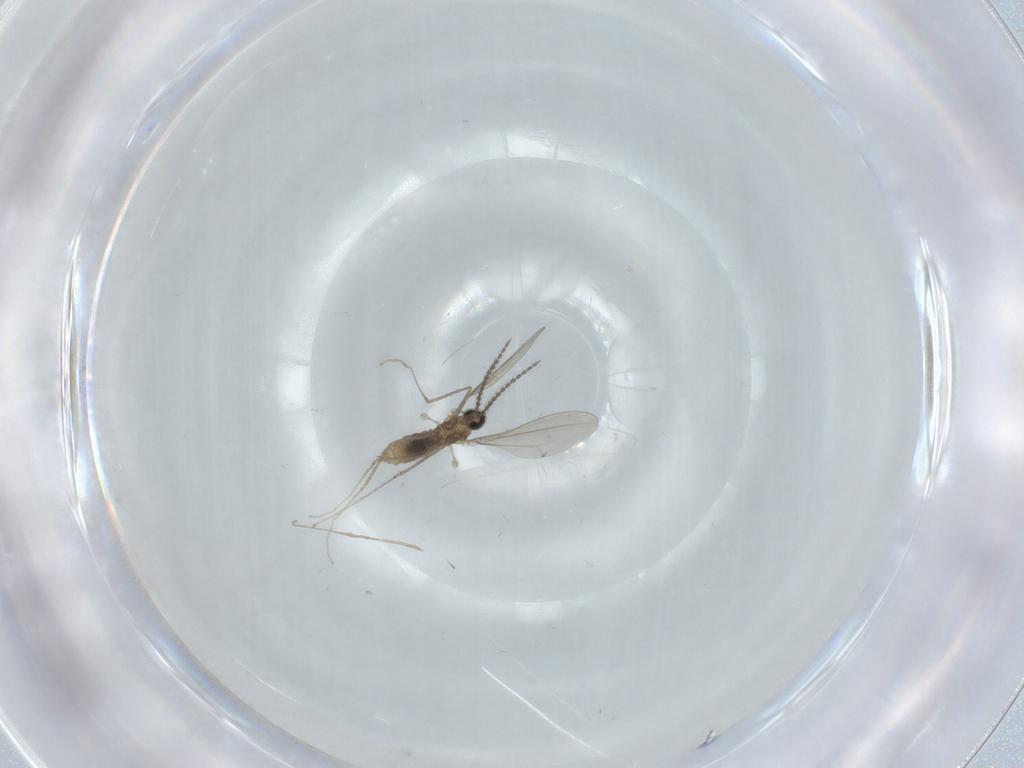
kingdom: Animalia
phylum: Arthropoda
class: Insecta
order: Diptera
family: Cecidomyiidae
